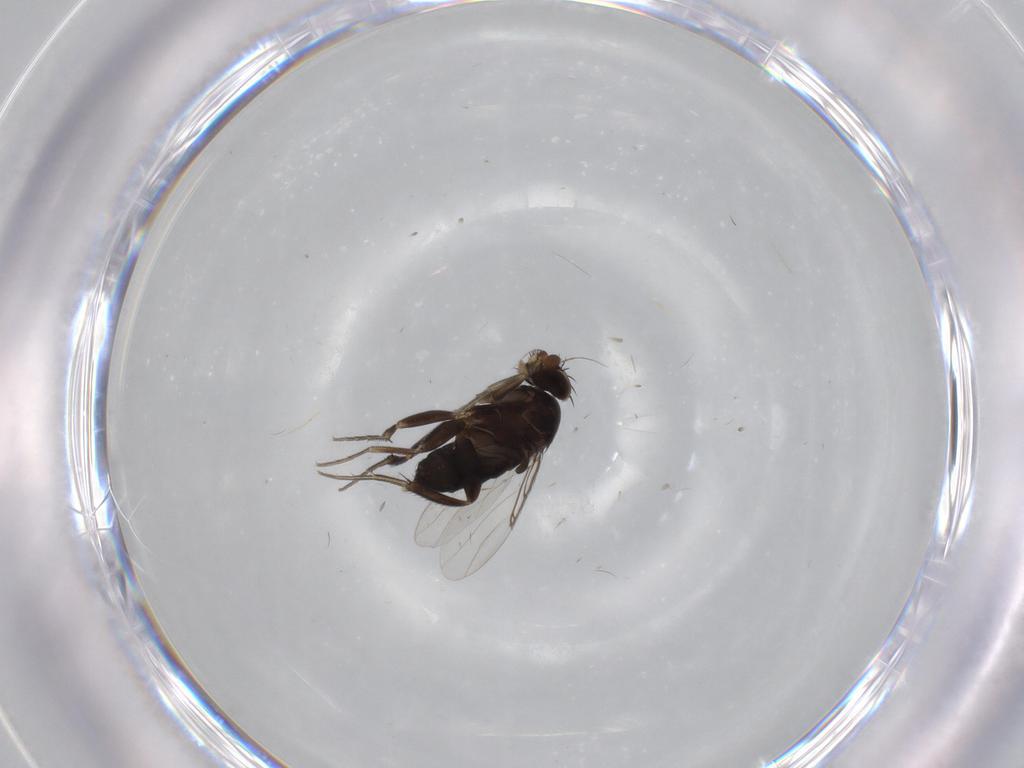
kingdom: Animalia
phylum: Arthropoda
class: Insecta
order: Diptera
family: Phoridae
